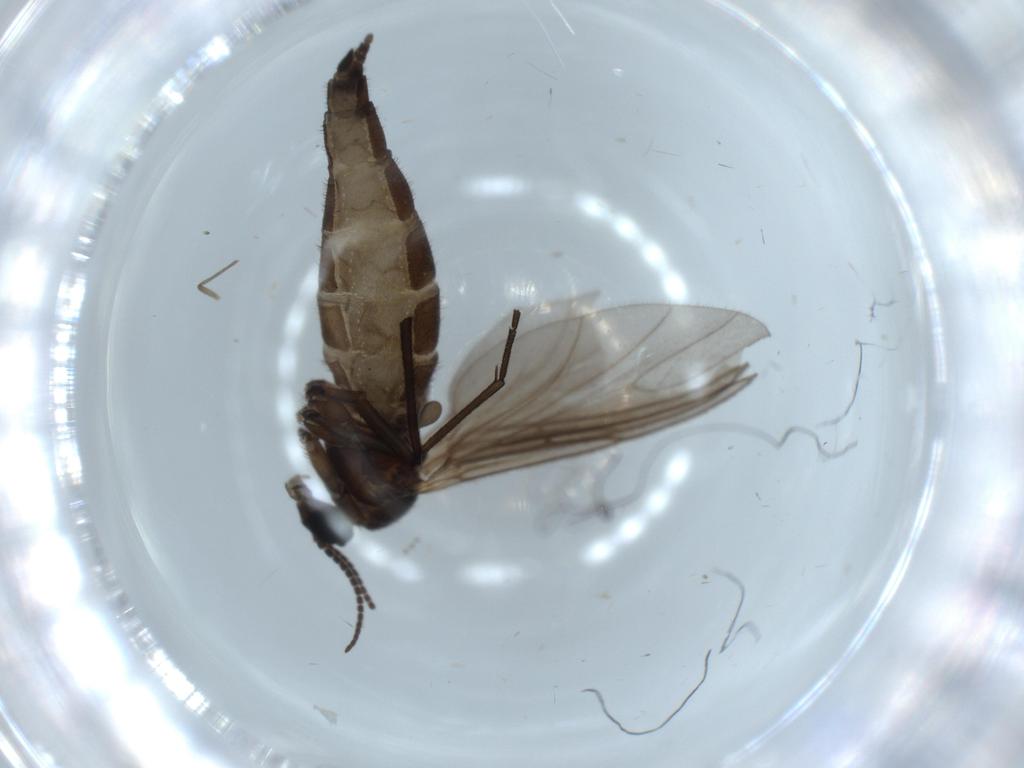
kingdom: Animalia
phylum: Arthropoda
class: Insecta
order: Diptera
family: Sciaridae
